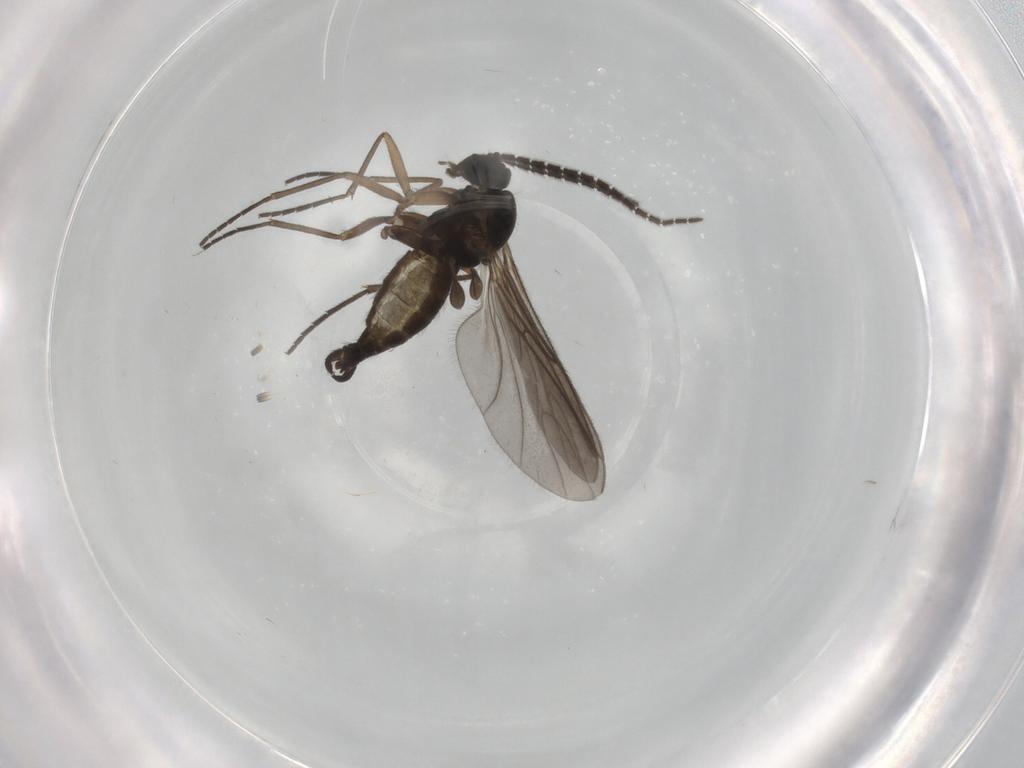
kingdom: Animalia
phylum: Arthropoda
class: Insecta
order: Diptera
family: Sciaridae
